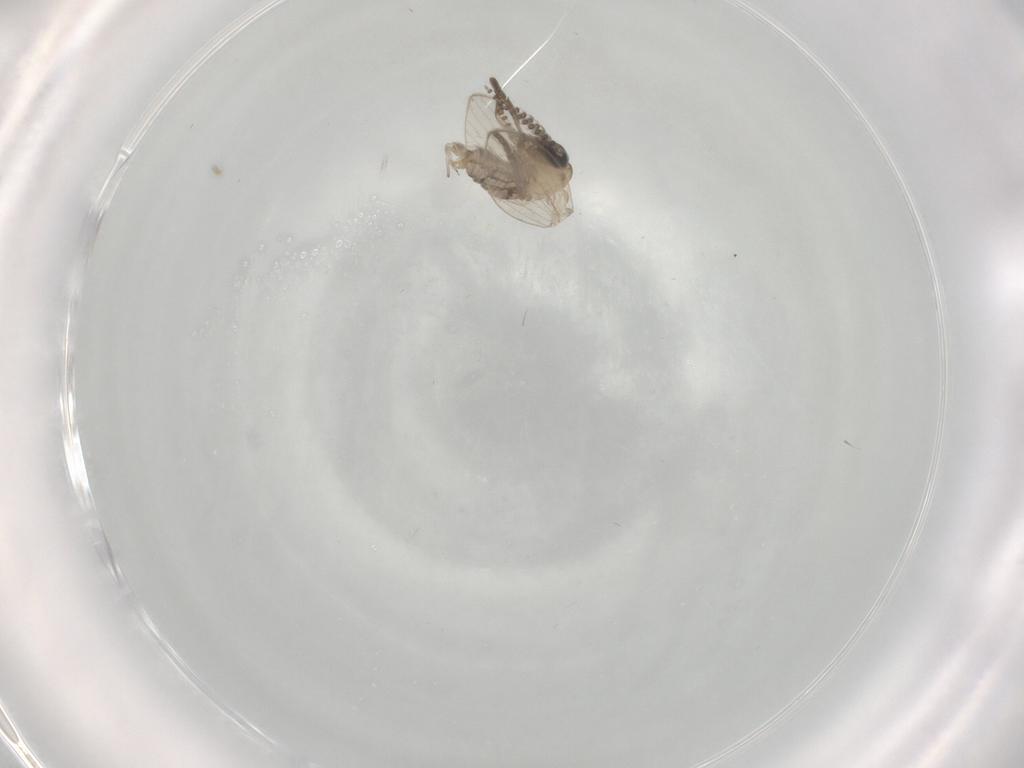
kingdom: Animalia
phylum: Arthropoda
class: Insecta
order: Diptera
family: Cecidomyiidae
